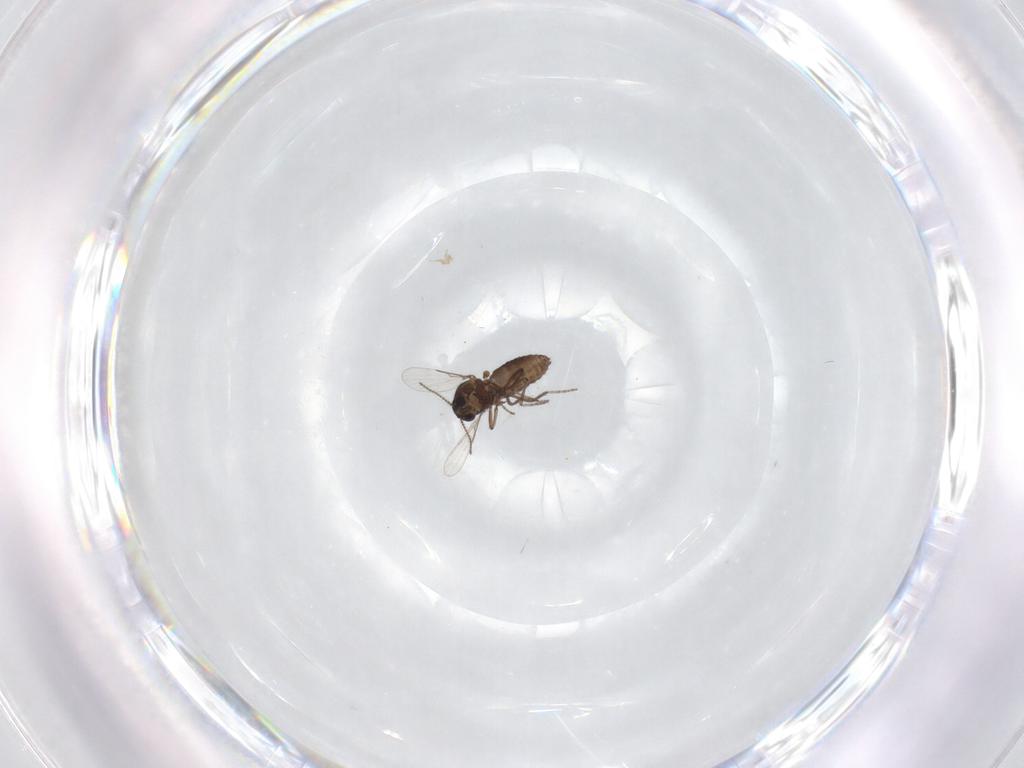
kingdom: Animalia
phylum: Arthropoda
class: Insecta
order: Diptera
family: Ceratopogonidae
